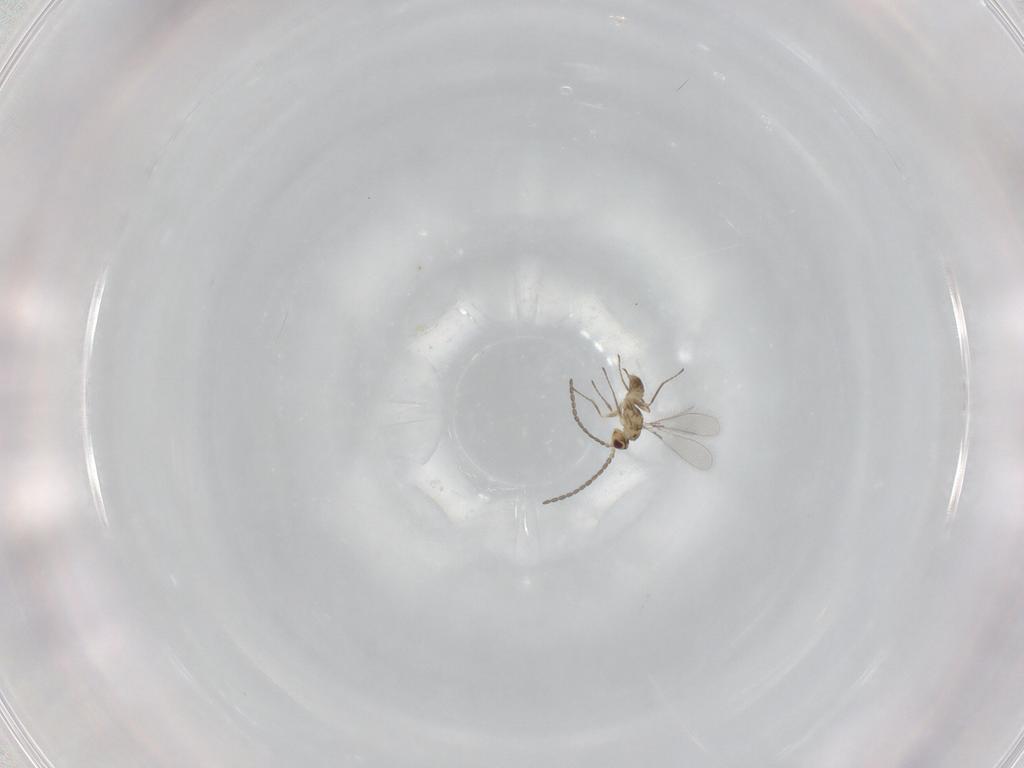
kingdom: Animalia
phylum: Arthropoda
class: Insecta
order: Hymenoptera
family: Mymaridae
